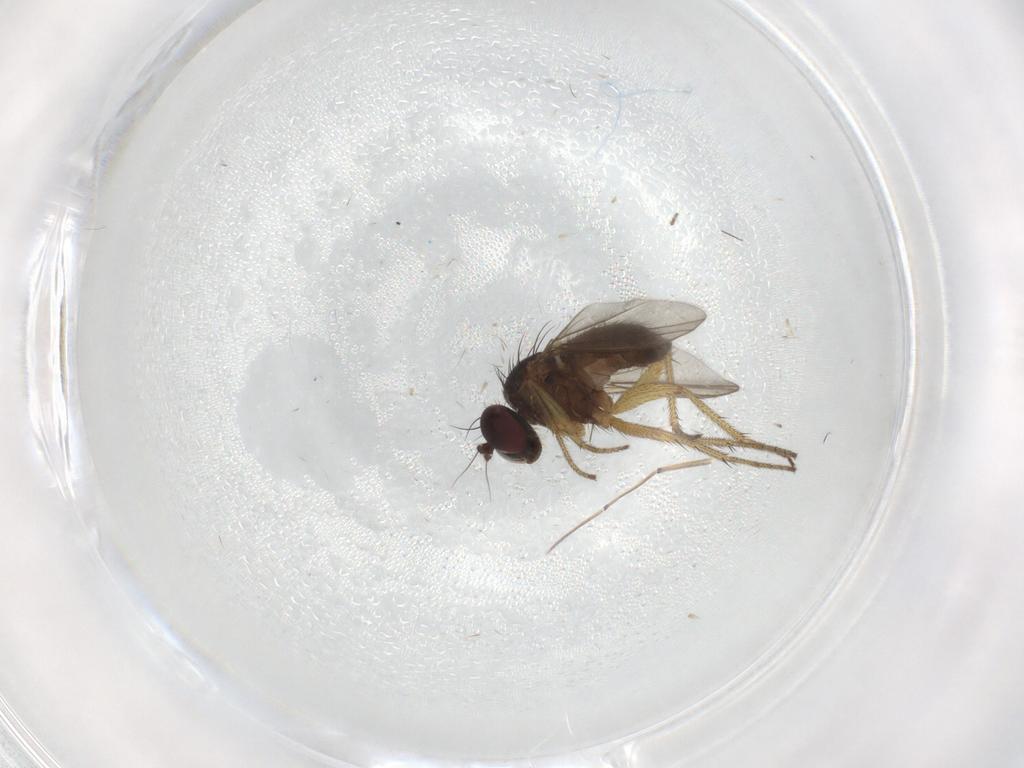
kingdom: Animalia
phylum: Arthropoda
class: Insecta
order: Diptera
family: Dolichopodidae
